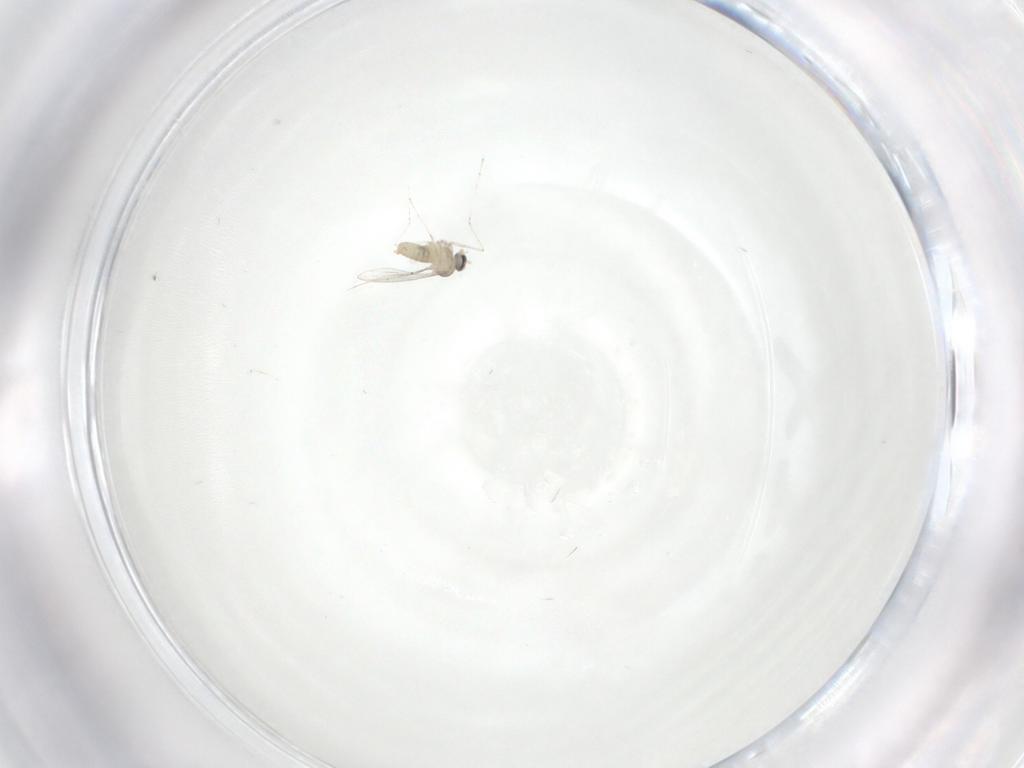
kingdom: Animalia
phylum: Arthropoda
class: Insecta
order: Diptera
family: Cecidomyiidae
